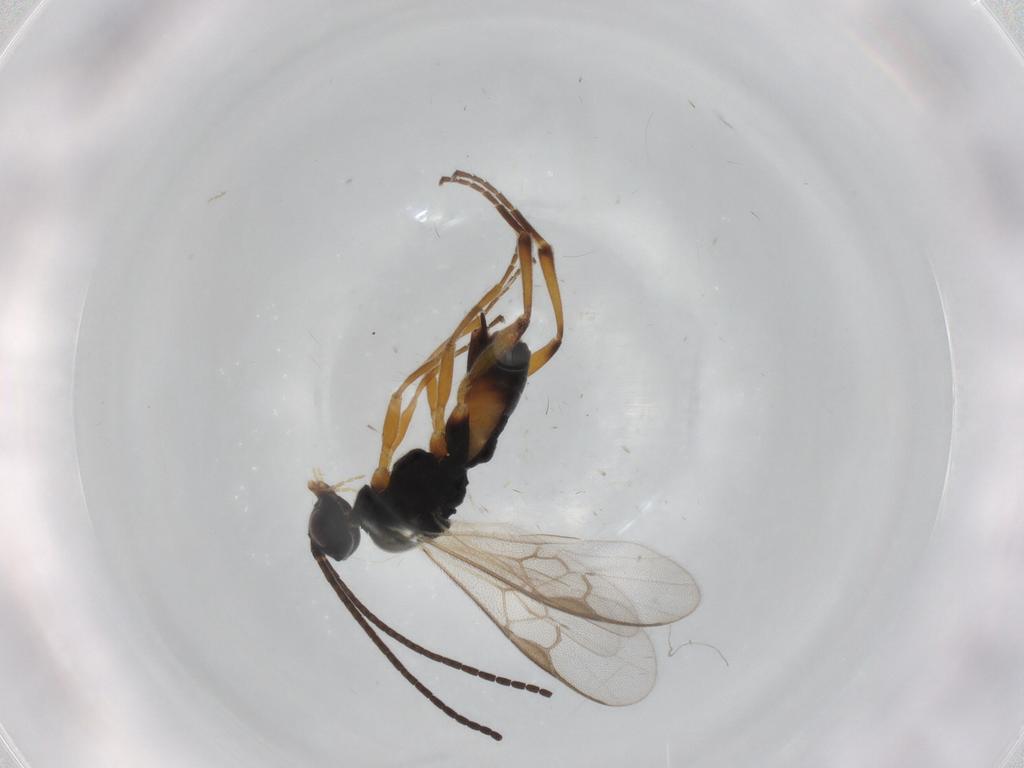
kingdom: Animalia
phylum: Arthropoda
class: Insecta
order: Hymenoptera
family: Braconidae
